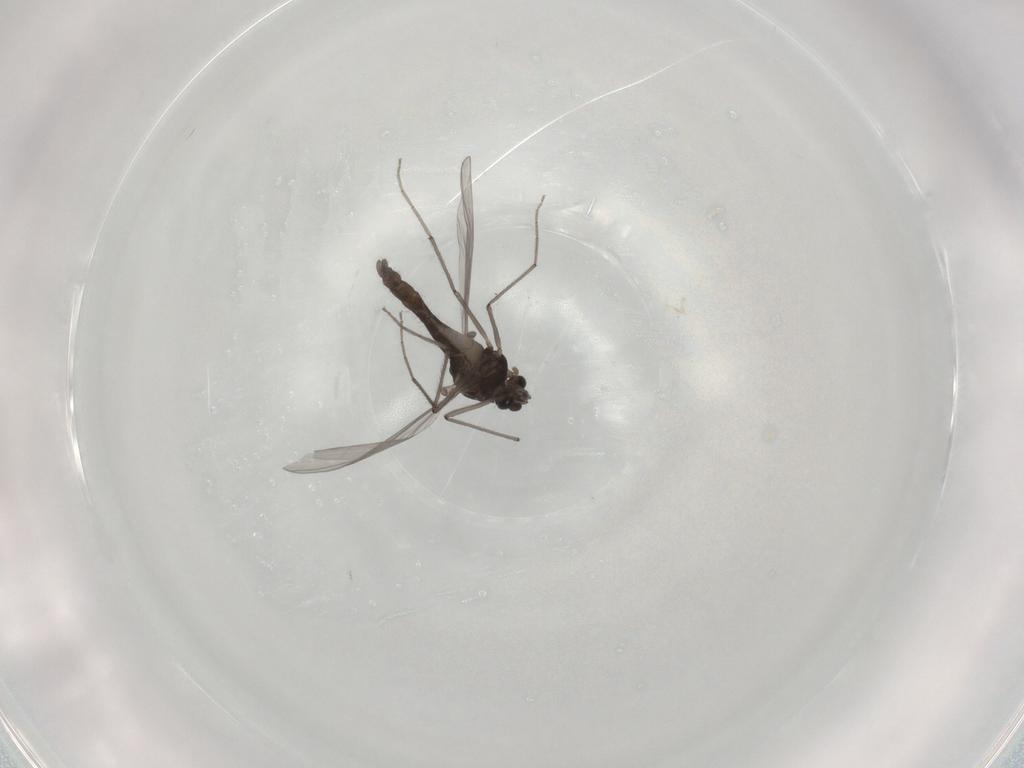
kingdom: Animalia
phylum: Arthropoda
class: Insecta
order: Diptera
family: Chironomidae
